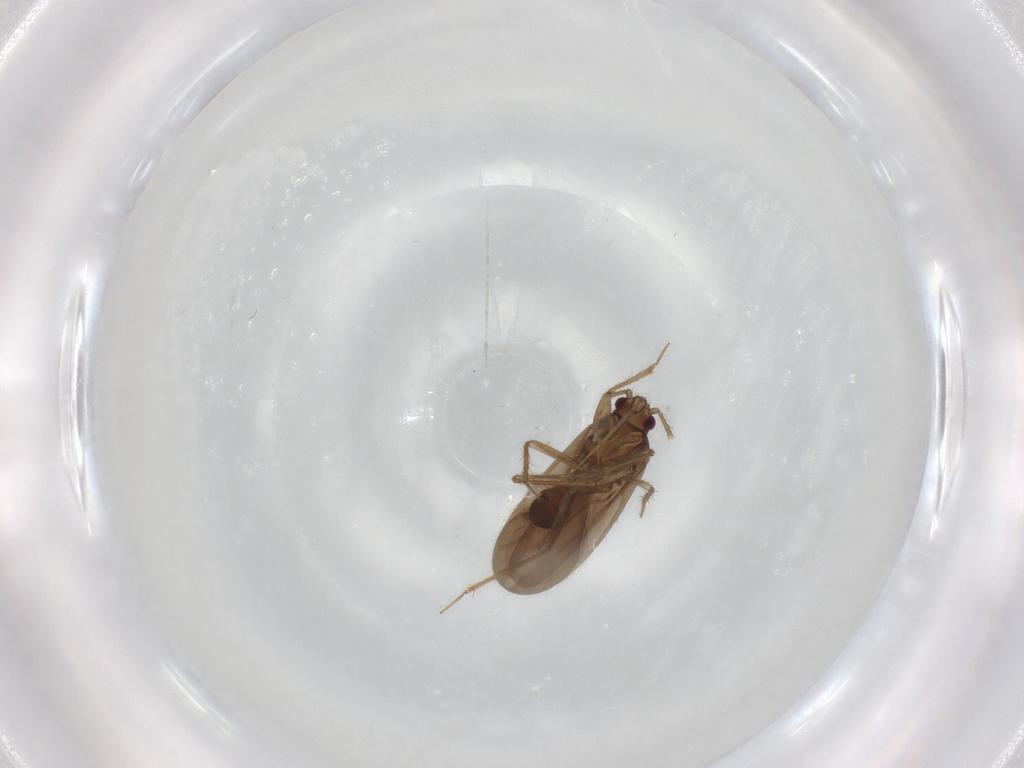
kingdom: Animalia
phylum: Arthropoda
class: Insecta
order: Hemiptera
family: Ceratocombidae
